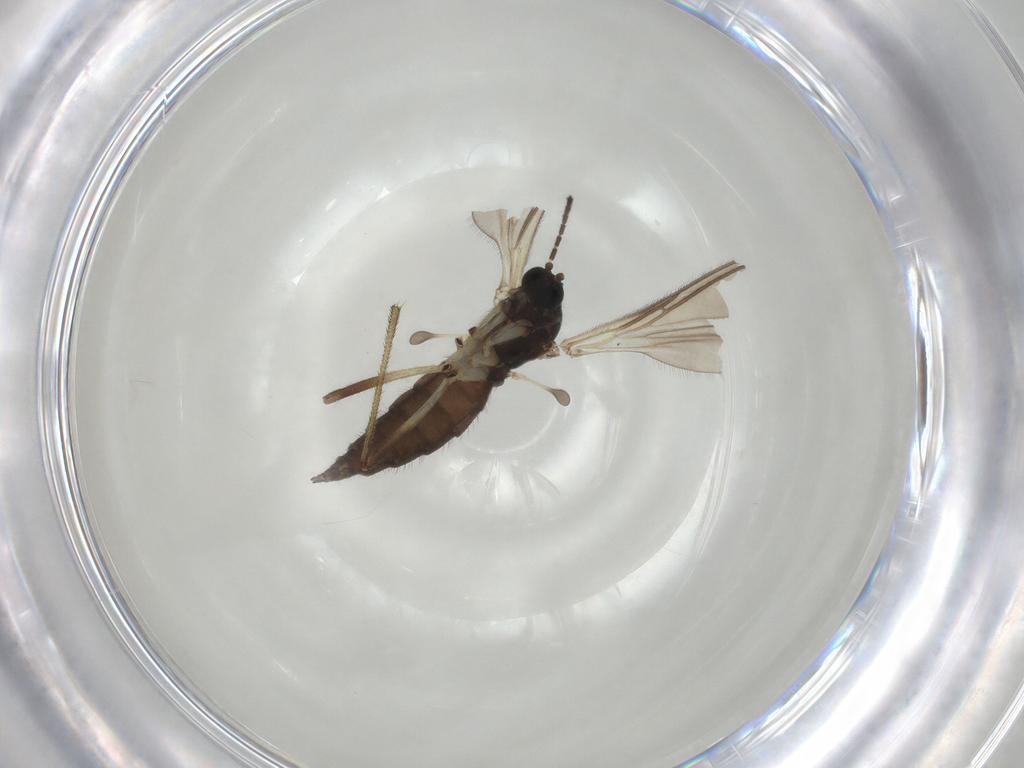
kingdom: Animalia
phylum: Arthropoda
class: Insecta
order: Diptera
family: Sciaridae
